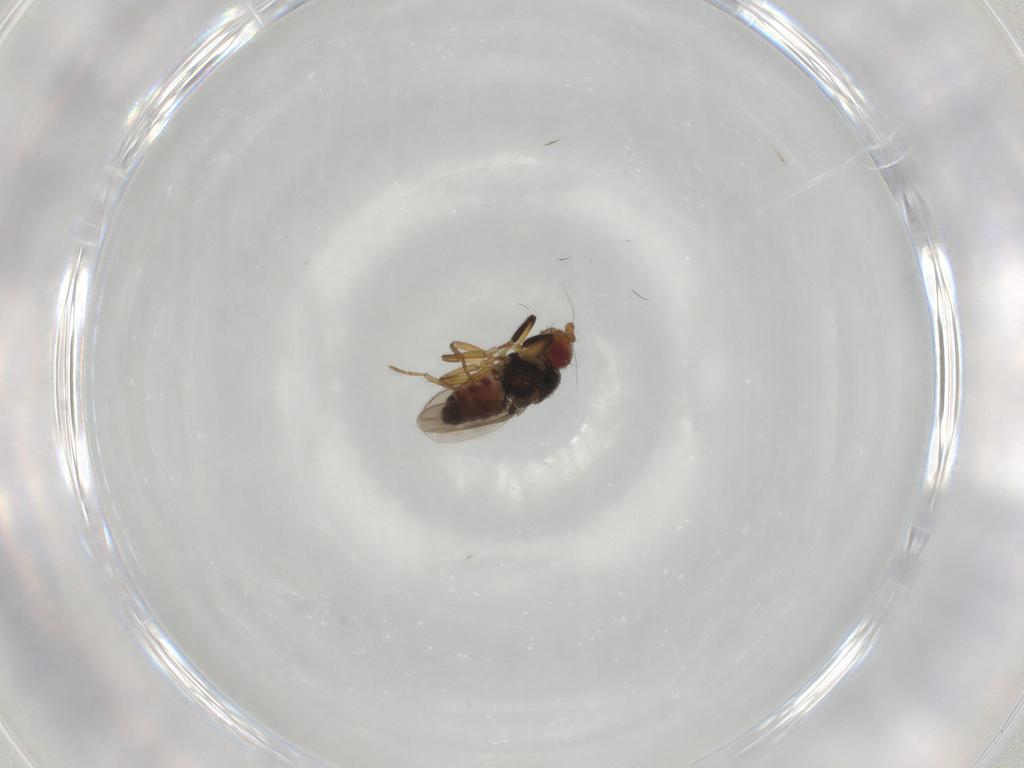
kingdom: Animalia
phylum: Arthropoda
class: Insecta
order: Diptera
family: Sphaeroceridae
